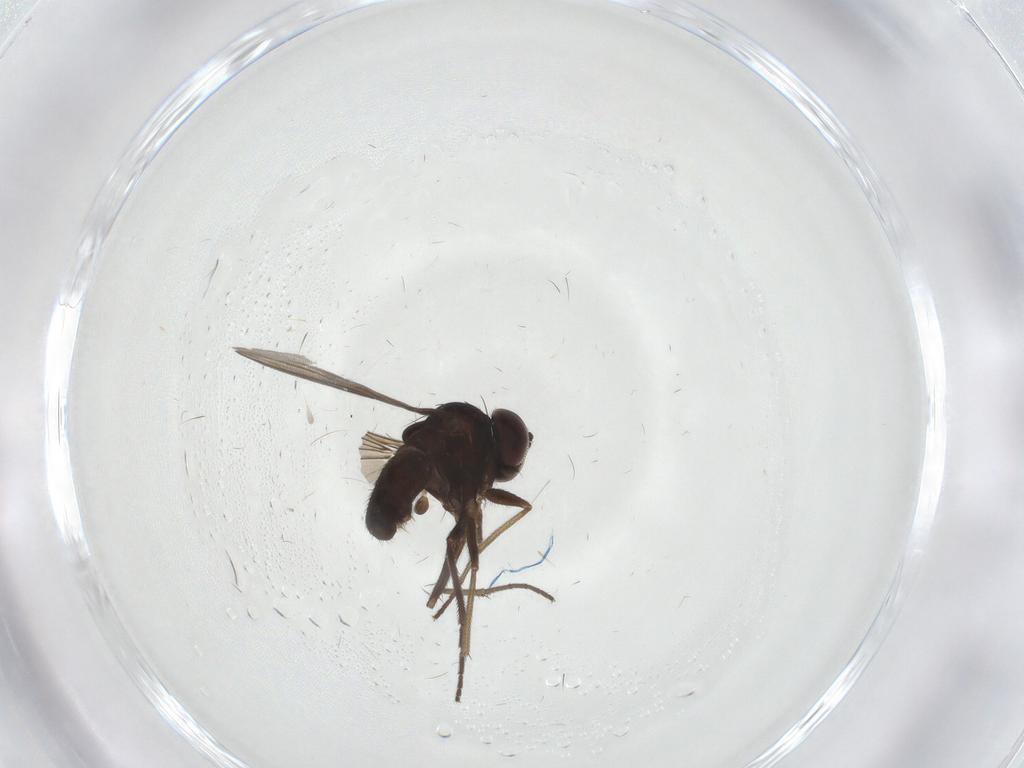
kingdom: Animalia
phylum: Arthropoda
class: Insecta
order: Diptera
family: Dolichopodidae
